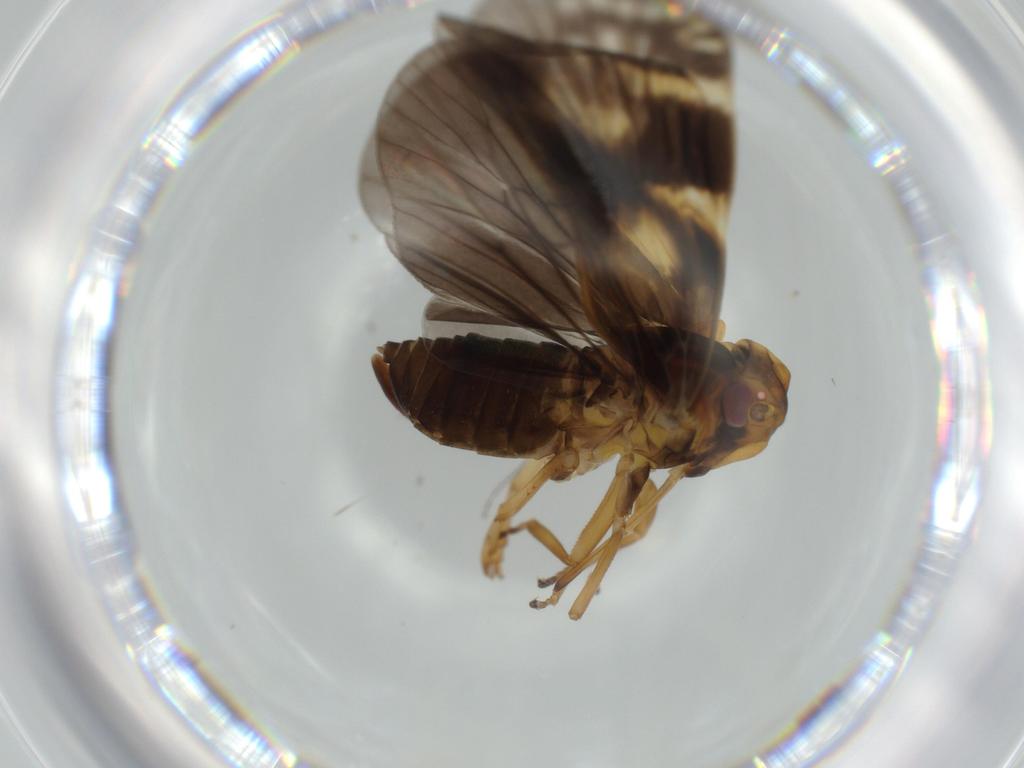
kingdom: Animalia
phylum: Arthropoda
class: Insecta
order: Hemiptera
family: Cixiidae
